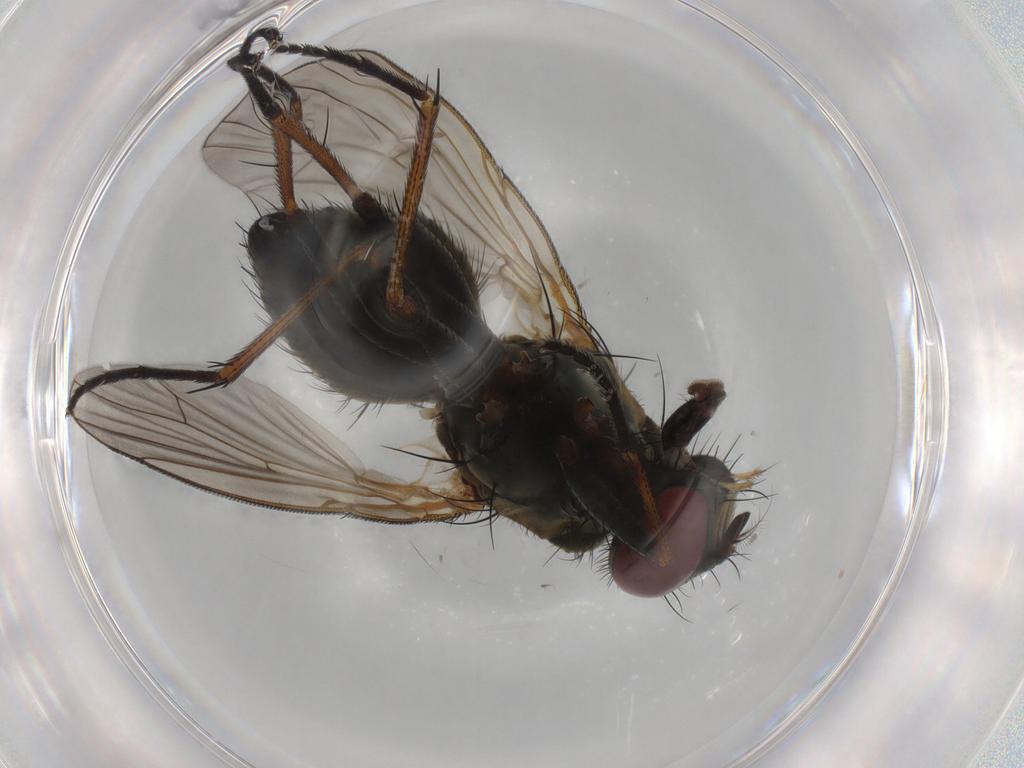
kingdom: Animalia
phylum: Arthropoda
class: Insecta
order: Diptera
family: Muscidae
